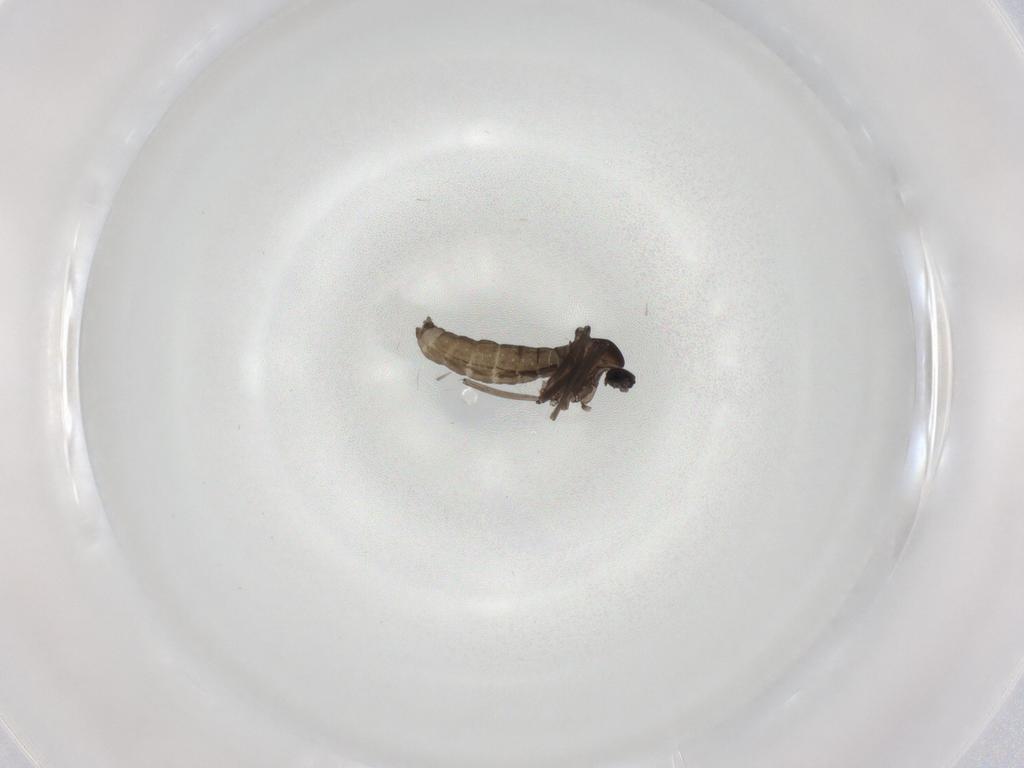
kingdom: Animalia
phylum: Arthropoda
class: Insecta
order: Diptera
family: Cecidomyiidae
